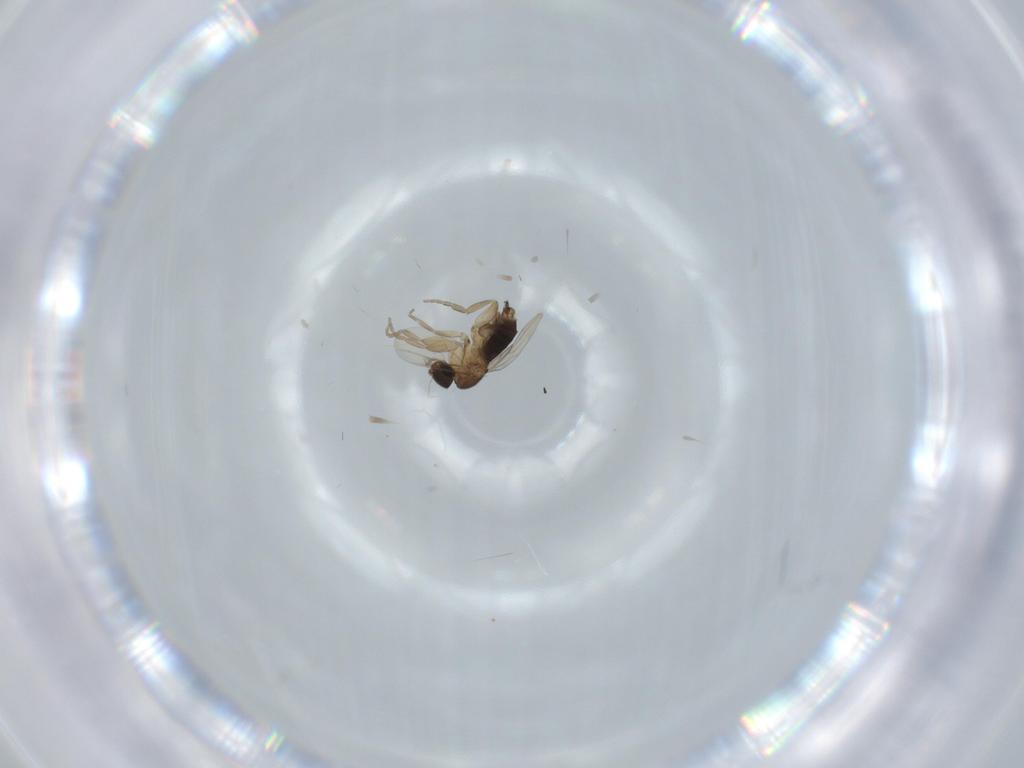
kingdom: Animalia
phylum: Arthropoda
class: Insecta
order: Diptera
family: Phoridae
